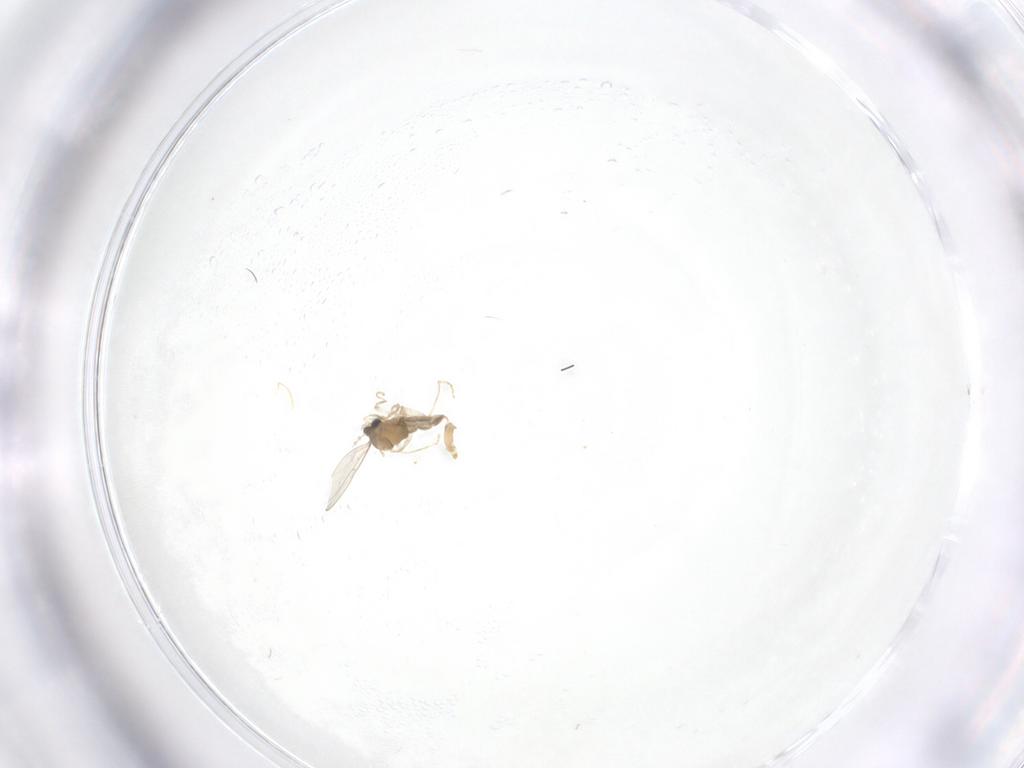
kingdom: Animalia
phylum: Arthropoda
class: Insecta
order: Diptera
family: Cecidomyiidae
